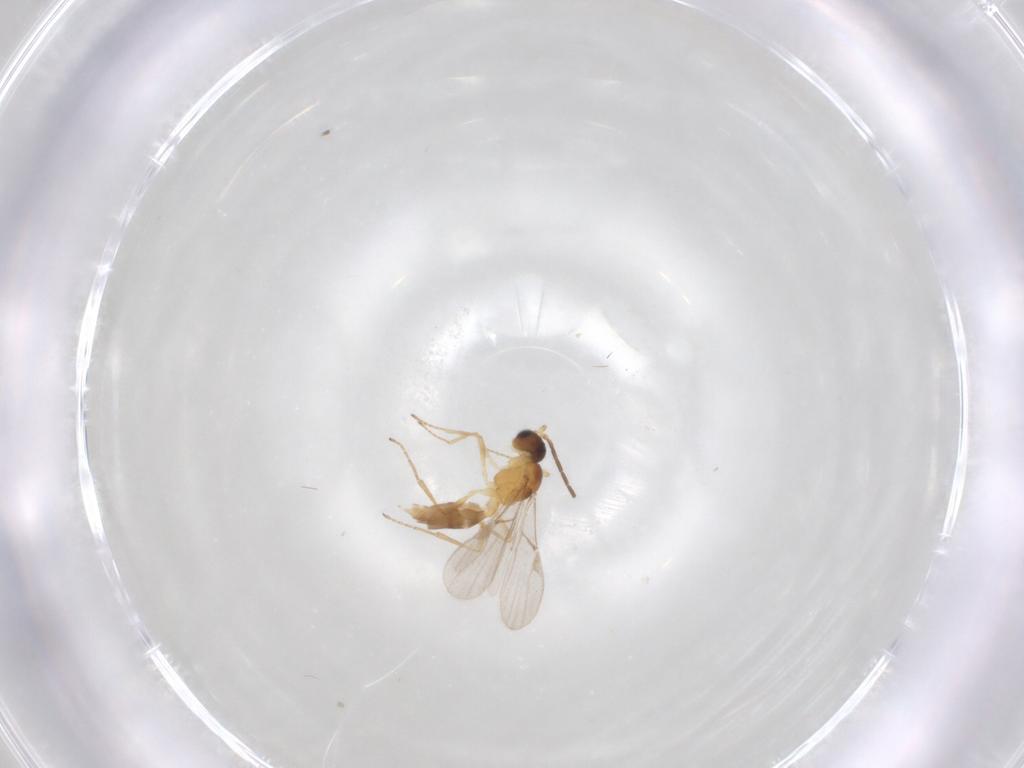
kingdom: Animalia
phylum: Arthropoda
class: Insecta
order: Hymenoptera
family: Braconidae
